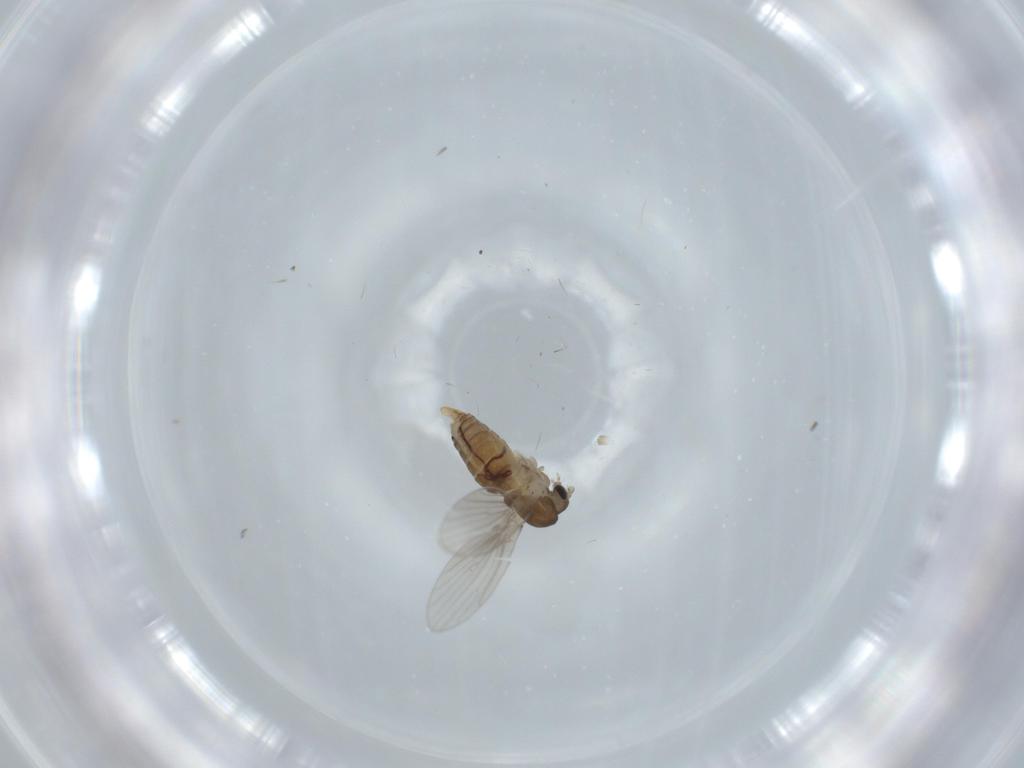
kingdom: Animalia
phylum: Arthropoda
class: Insecta
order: Diptera
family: Psychodidae
